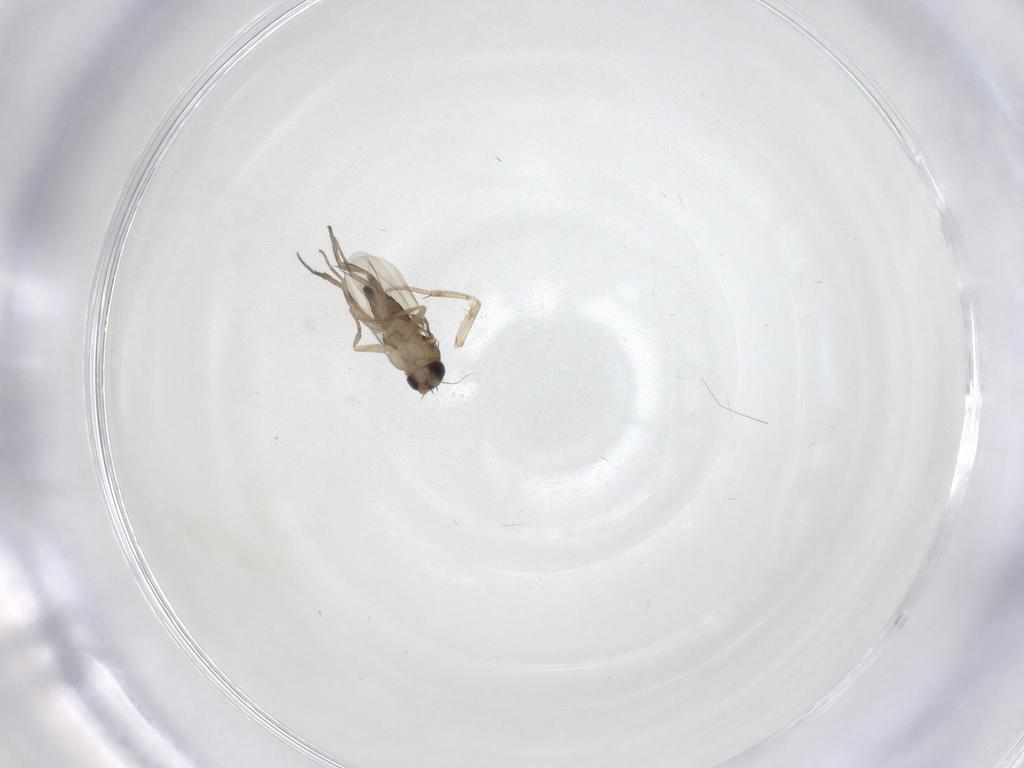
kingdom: Animalia
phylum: Arthropoda
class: Insecta
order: Diptera
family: Phoridae
